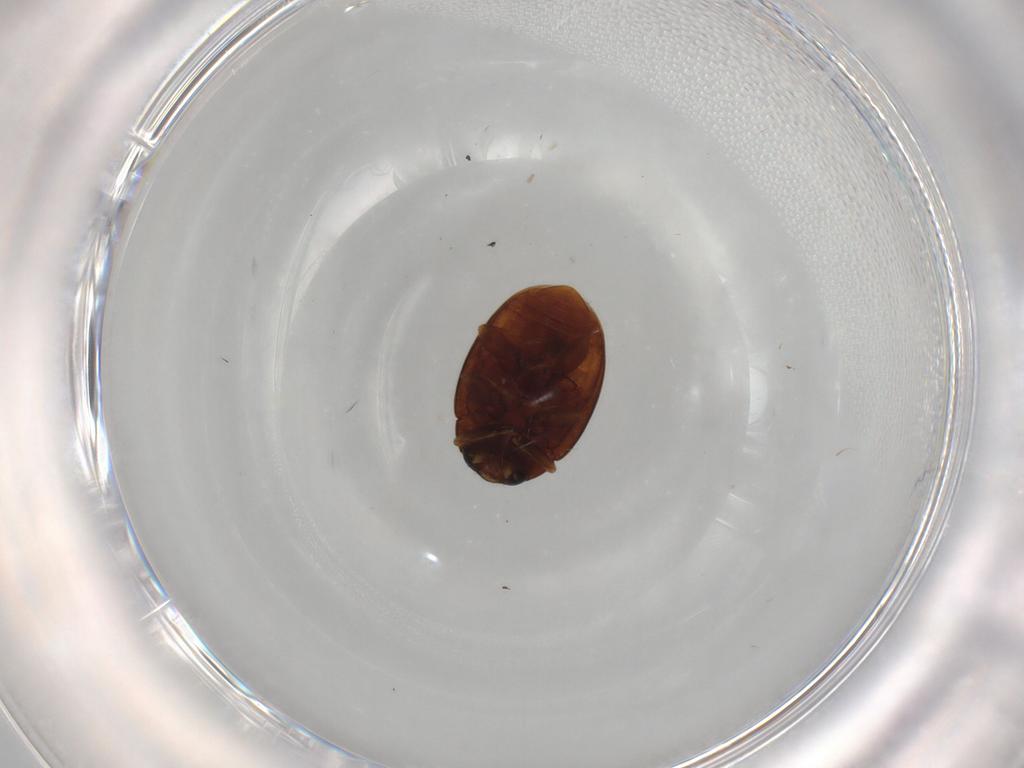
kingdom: Animalia
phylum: Arthropoda
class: Insecta
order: Coleoptera
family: Coccinellidae
